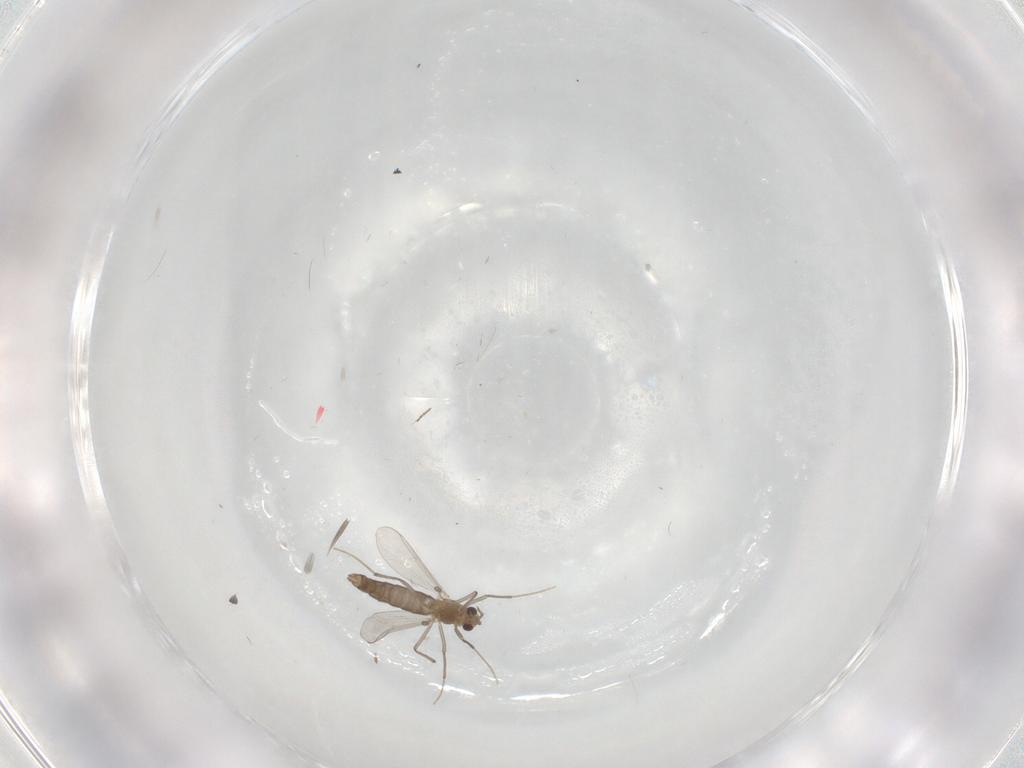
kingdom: Animalia
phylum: Arthropoda
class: Insecta
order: Diptera
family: Chironomidae
